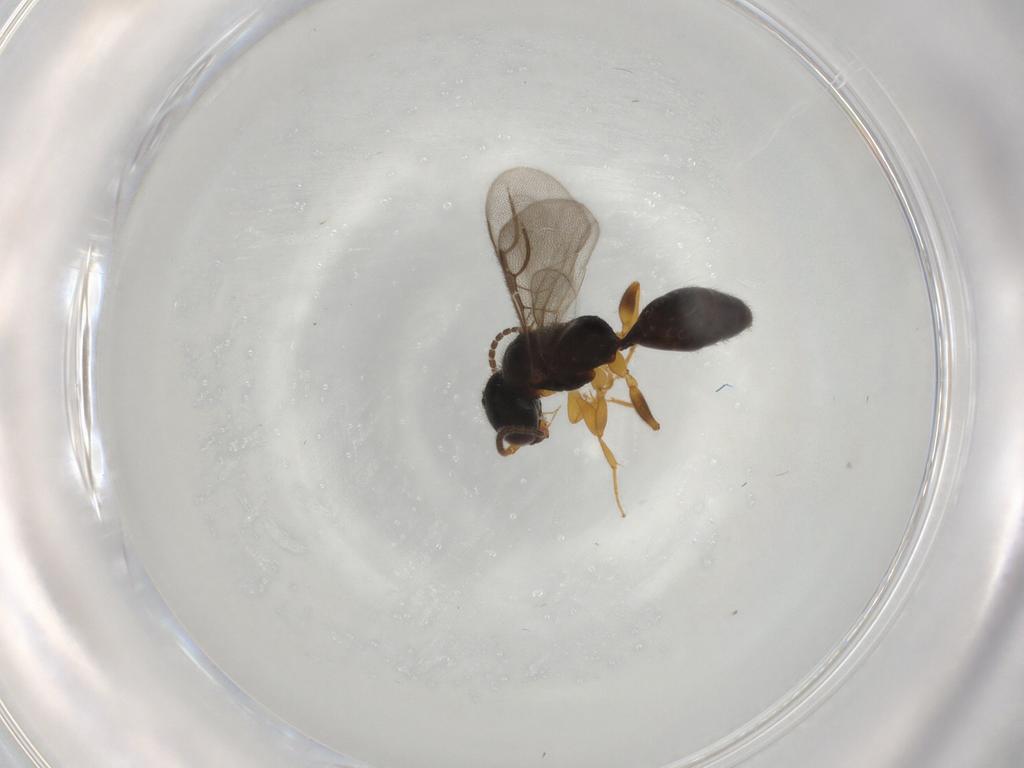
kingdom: Animalia
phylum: Arthropoda
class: Insecta
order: Hymenoptera
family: Bethylidae
